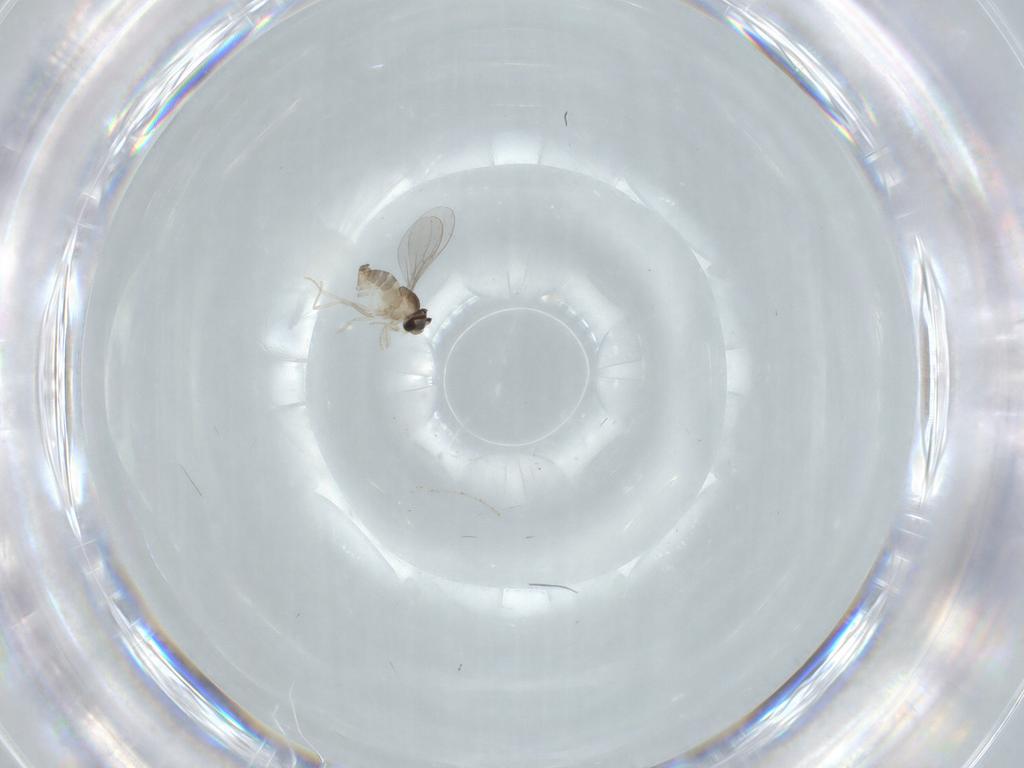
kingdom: Animalia
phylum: Arthropoda
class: Insecta
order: Diptera
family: Cecidomyiidae
